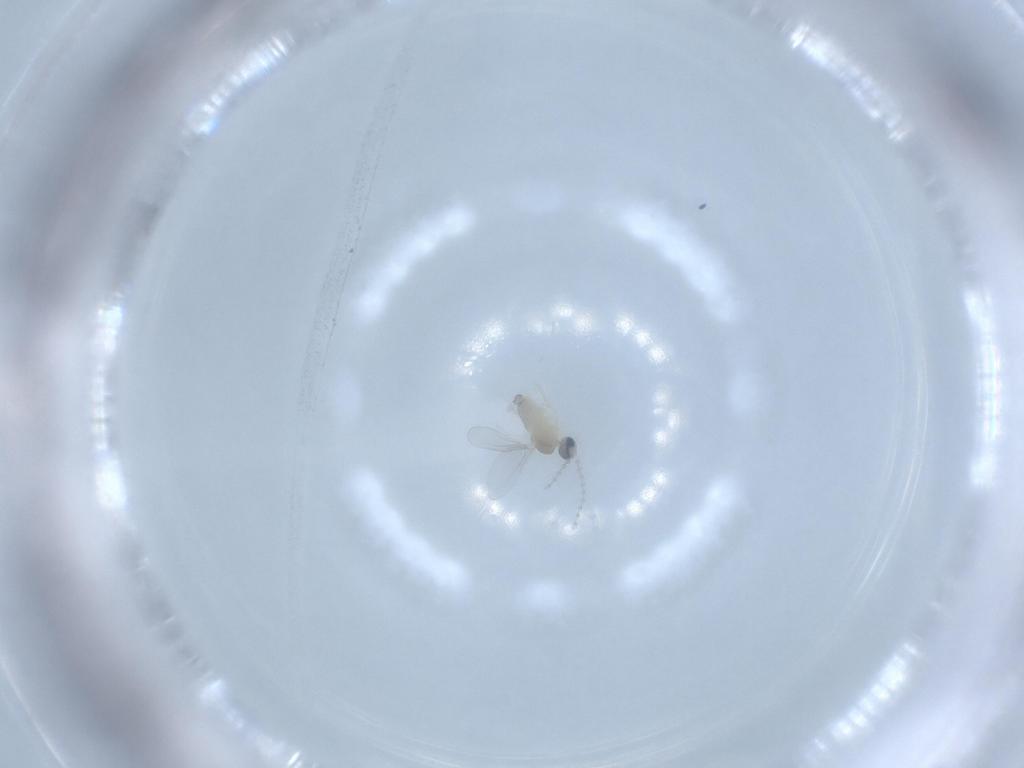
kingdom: Animalia
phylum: Arthropoda
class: Insecta
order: Diptera
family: Cecidomyiidae
